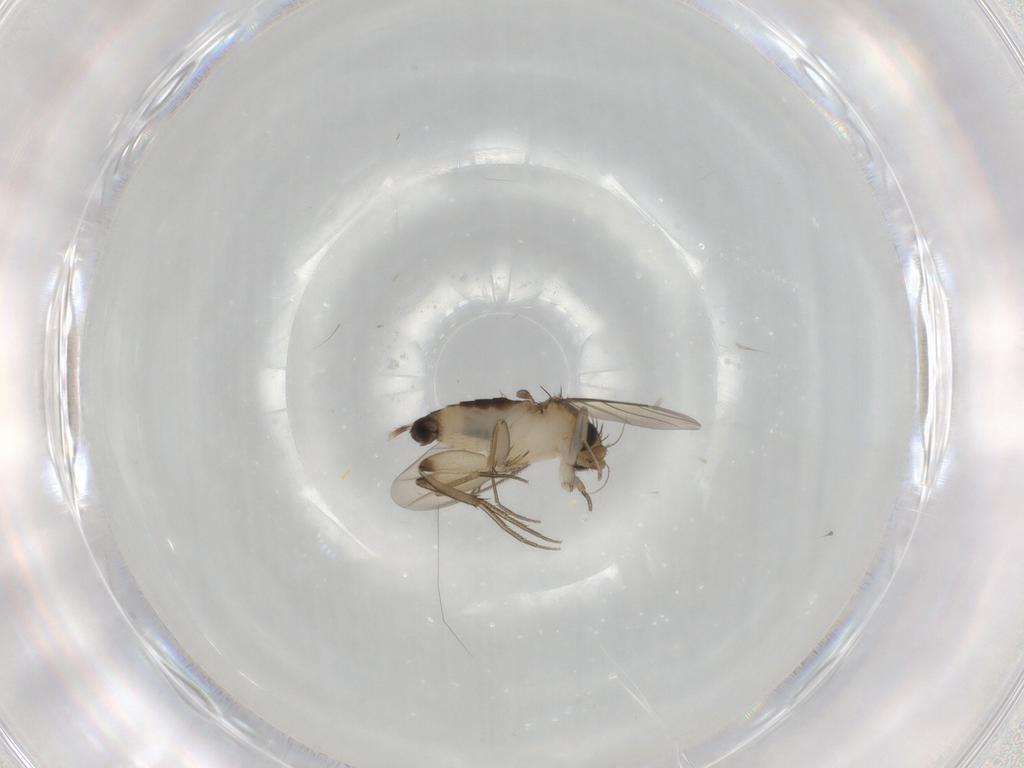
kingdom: Animalia
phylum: Arthropoda
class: Insecta
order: Diptera
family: Phoridae
